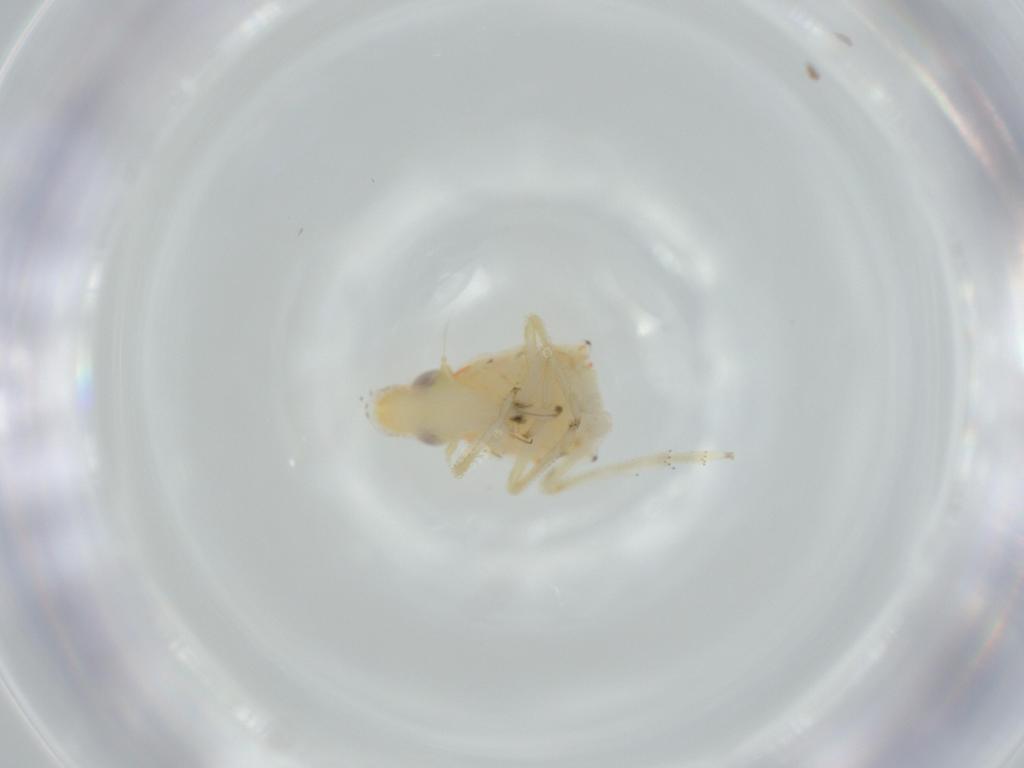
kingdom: Animalia
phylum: Arthropoda
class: Insecta
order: Hemiptera
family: Tropiduchidae
